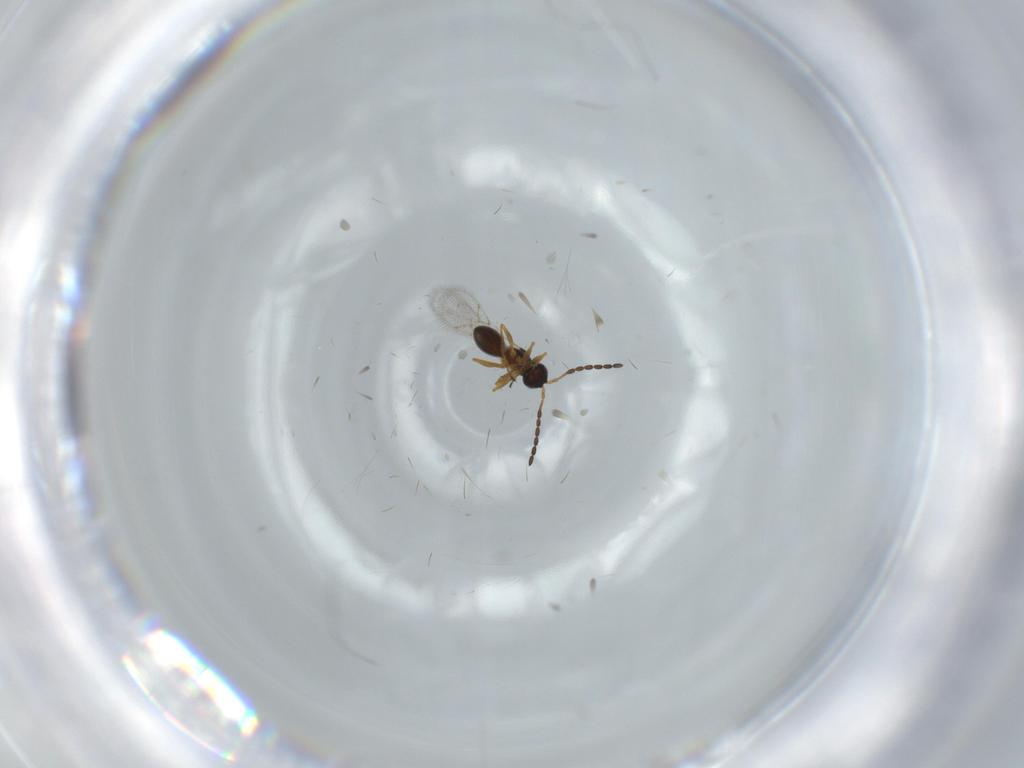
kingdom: Animalia
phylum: Arthropoda
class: Insecta
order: Hymenoptera
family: Figitidae
